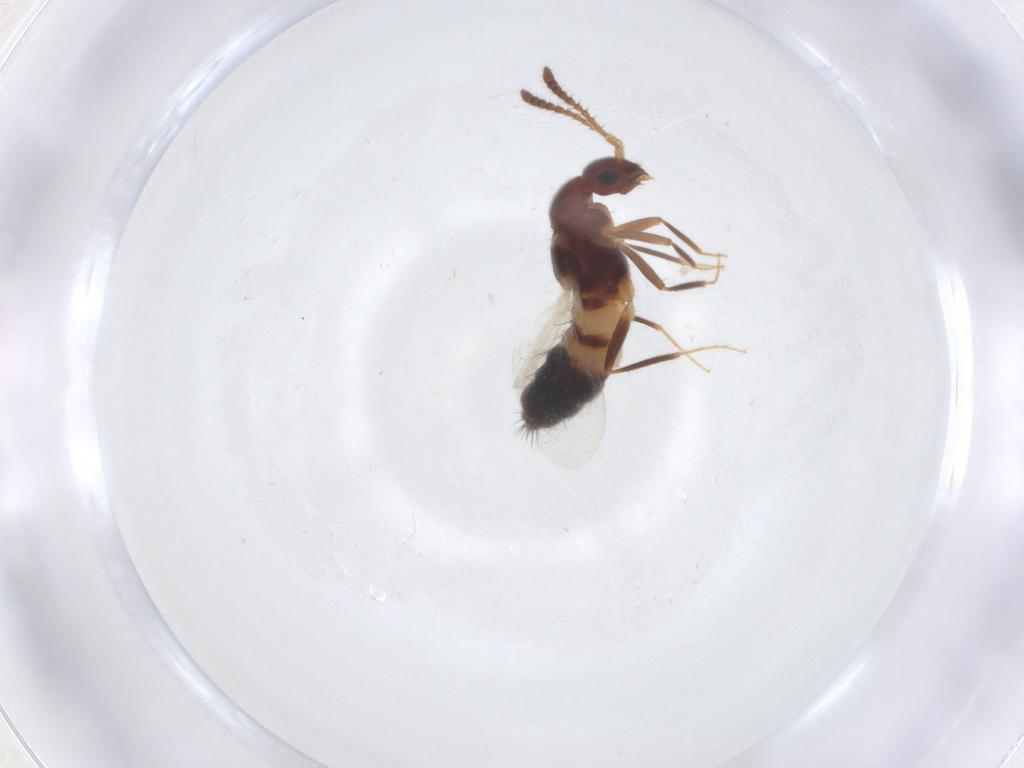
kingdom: Animalia
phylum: Arthropoda
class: Insecta
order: Coleoptera
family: Staphylinidae
